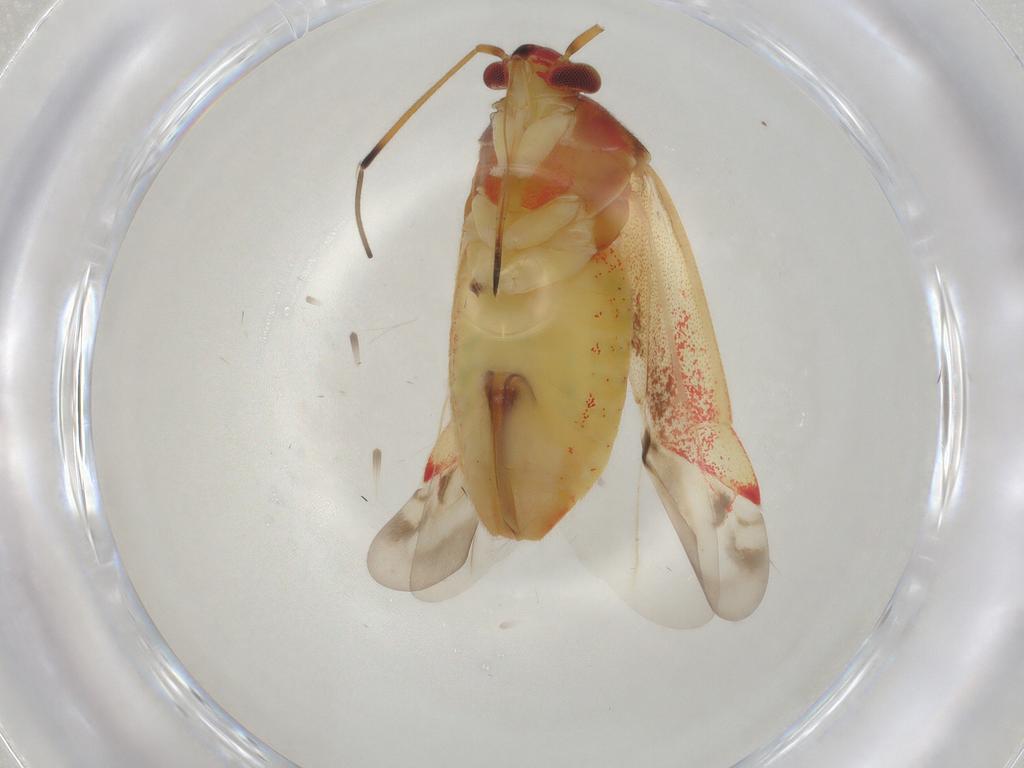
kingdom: Animalia
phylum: Arthropoda
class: Insecta
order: Hemiptera
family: Miridae
